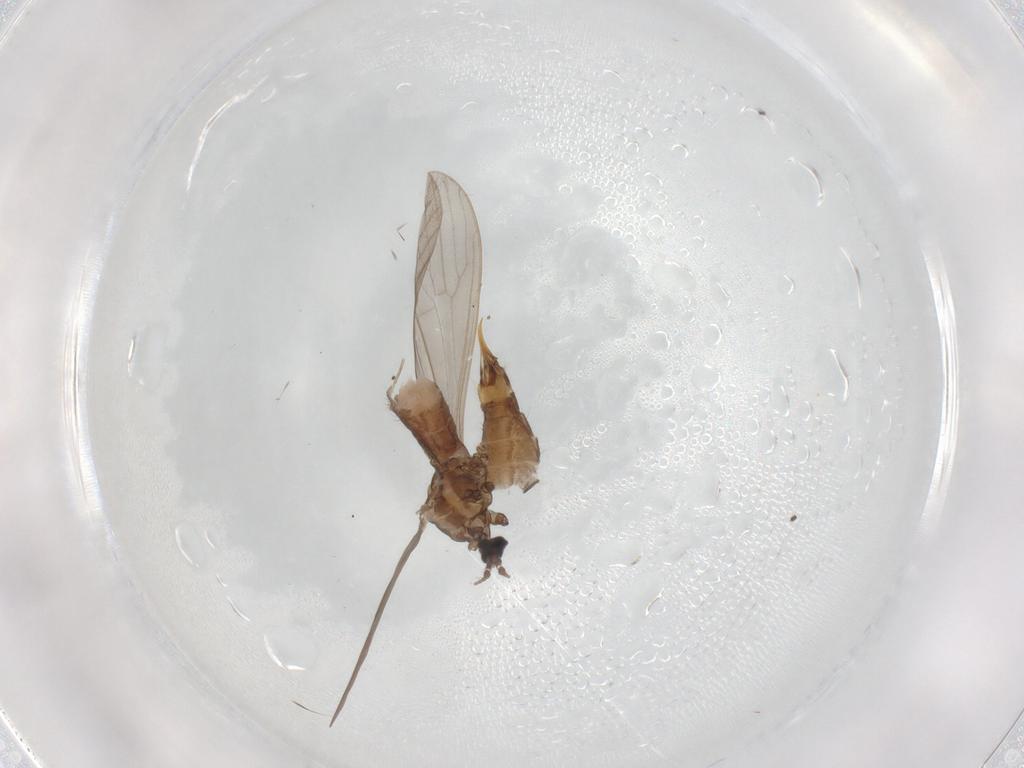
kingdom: Animalia
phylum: Arthropoda
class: Insecta
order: Diptera
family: Limoniidae
